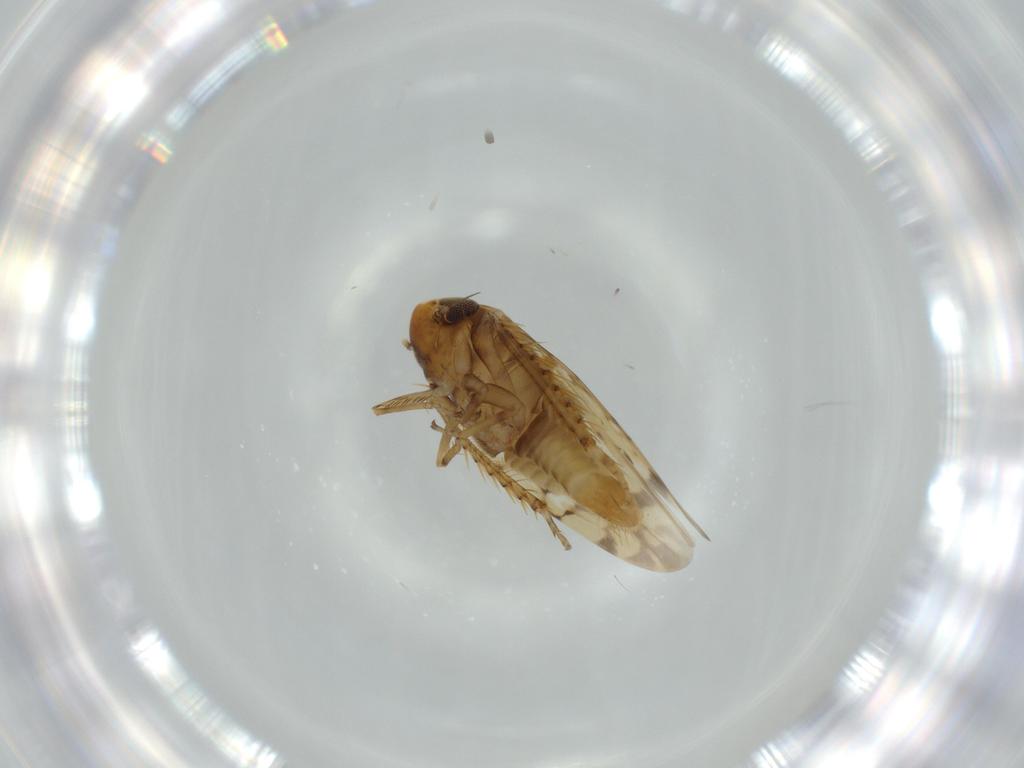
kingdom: Animalia
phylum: Arthropoda
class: Insecta
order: Hemiptera
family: Cicadellidae
